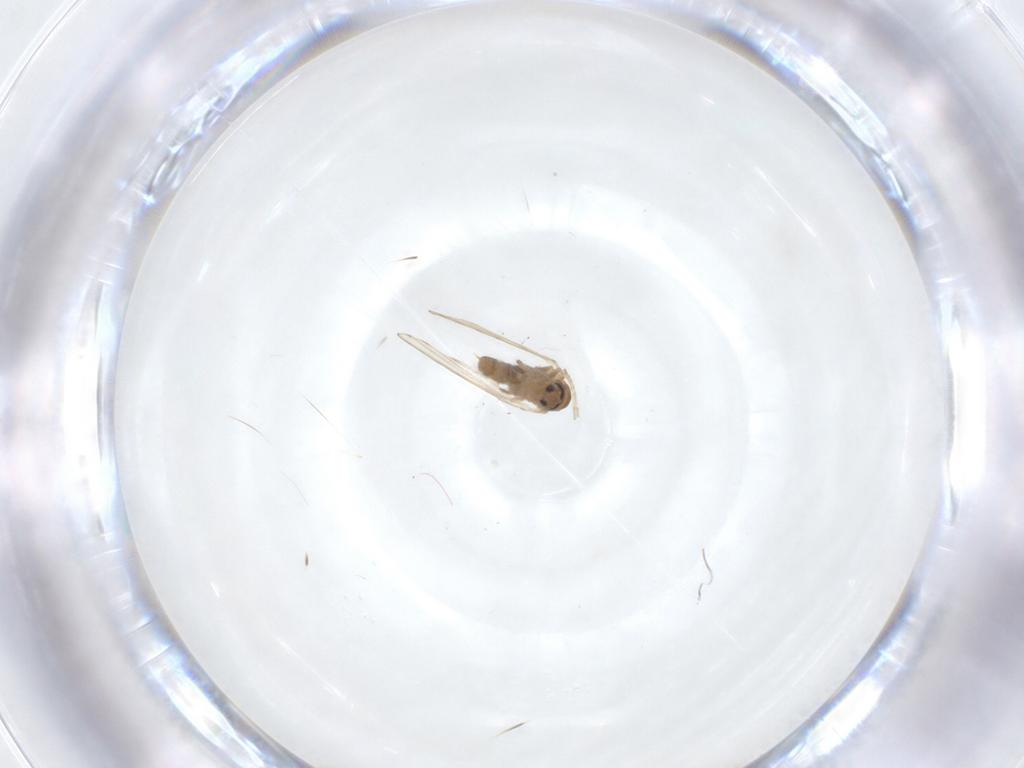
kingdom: Animalia
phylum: Arthropoda
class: Insecta
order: Diptera
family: Psychodidae
